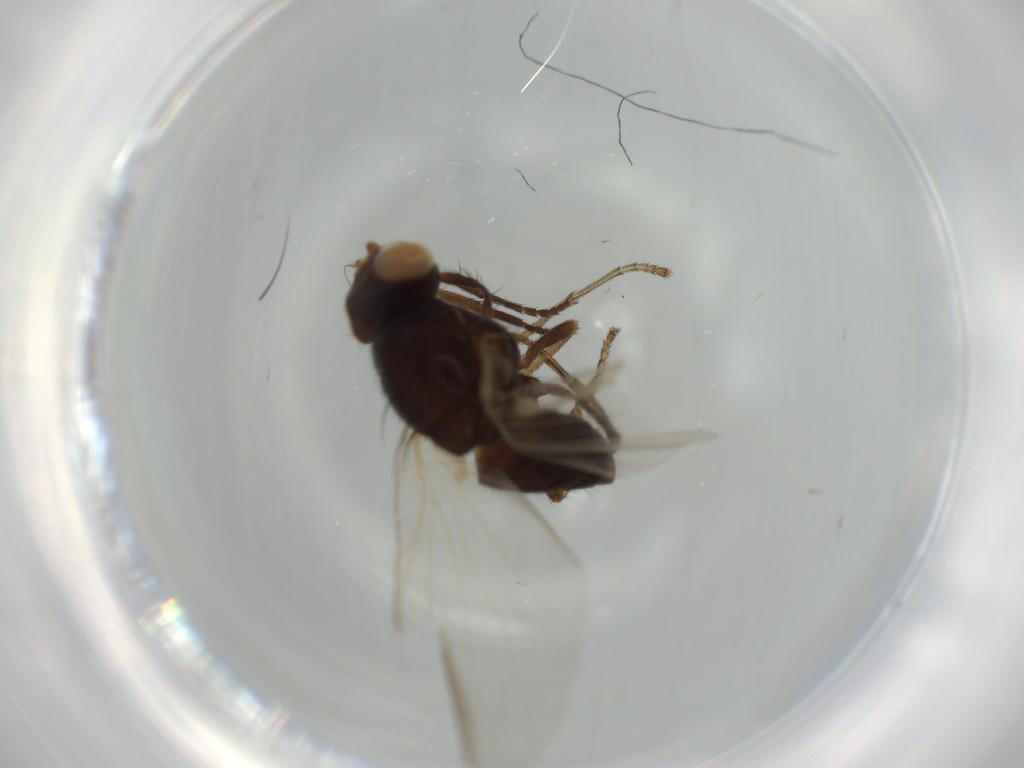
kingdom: Animalia
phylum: Arthropoda
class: Insecta
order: Diptera
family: Lauxaniidae
